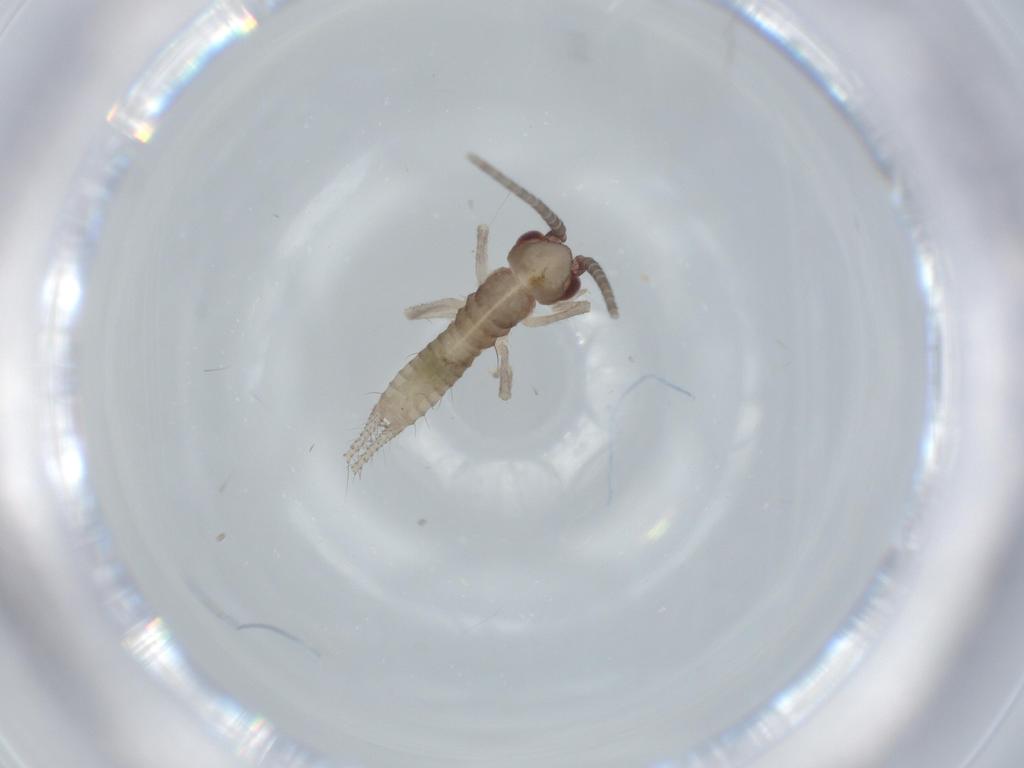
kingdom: Animalia
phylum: Arthropoda
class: Insecta
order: Orthoptera
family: Gryllidae
